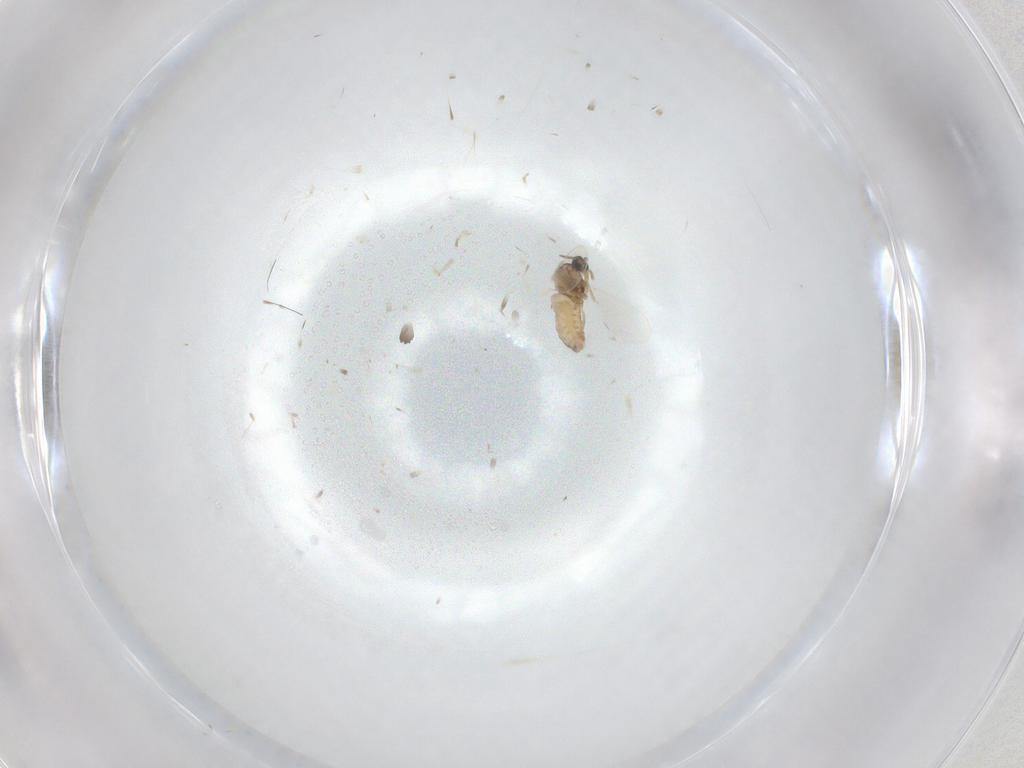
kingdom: Animalia
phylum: Arthropoda
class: Insecta
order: Diptera
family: Cecidomyiidae
